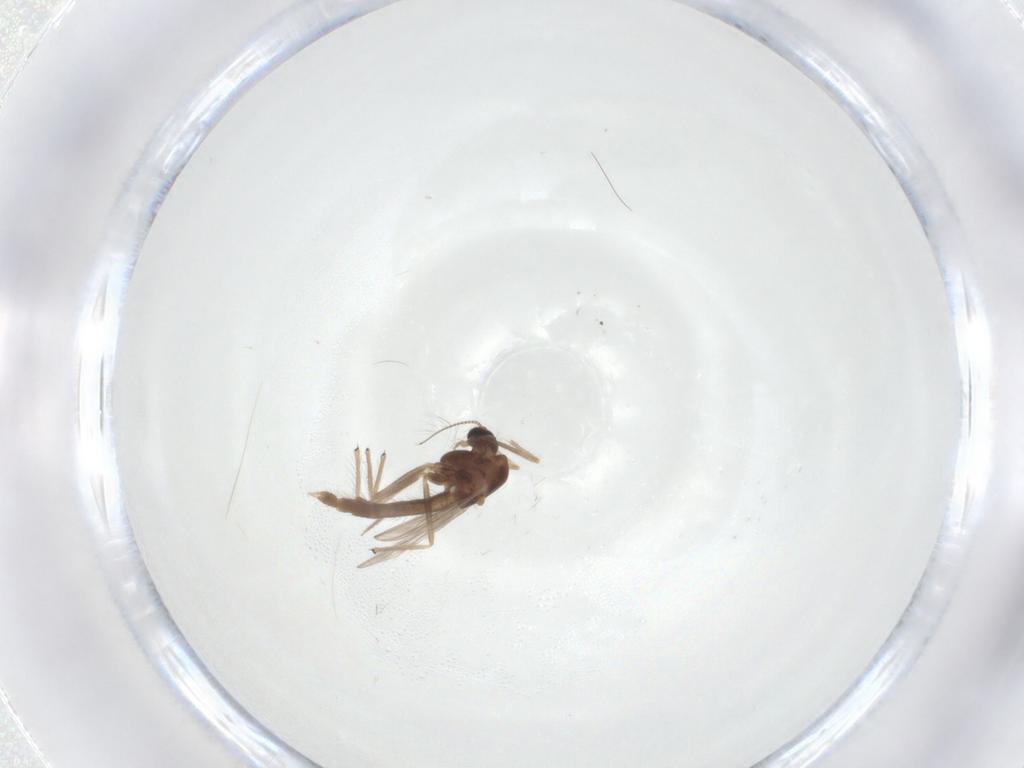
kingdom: Animalia
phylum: Arthropoda
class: Insecta
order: Diptera
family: Chironomidae
